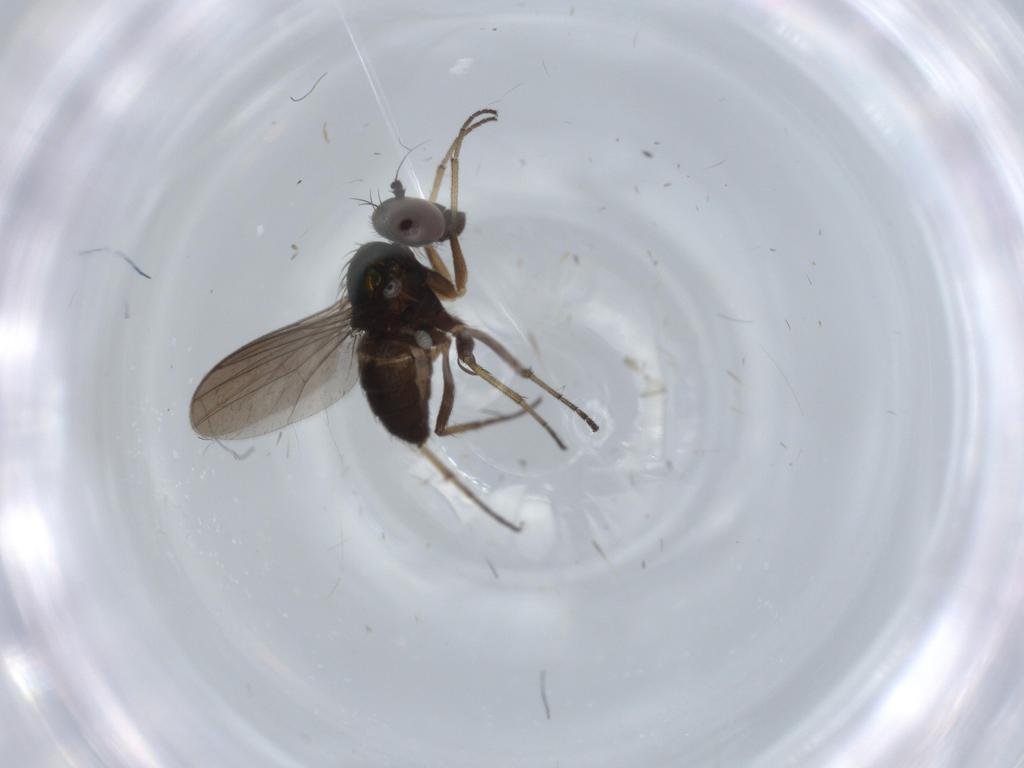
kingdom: Animalia
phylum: Arthropoda
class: Insecta
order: Diptera
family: Dolichopodidae
